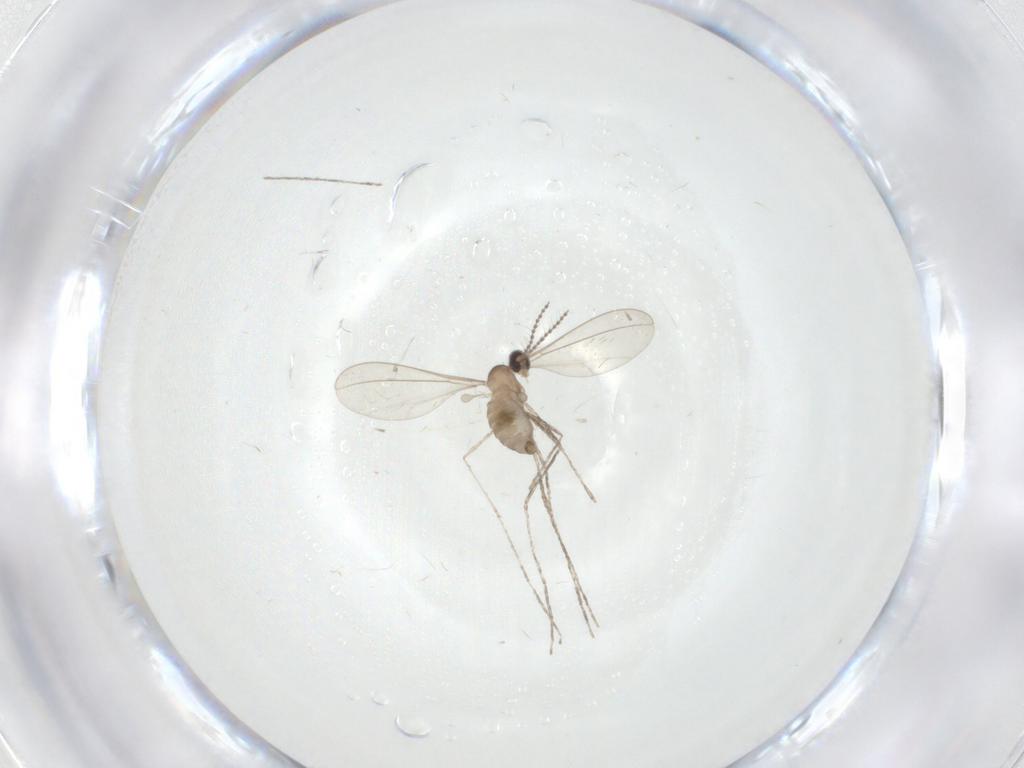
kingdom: Animalia
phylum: Arthropoda
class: Insecta
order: Diptera
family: Cecidomyiidae
